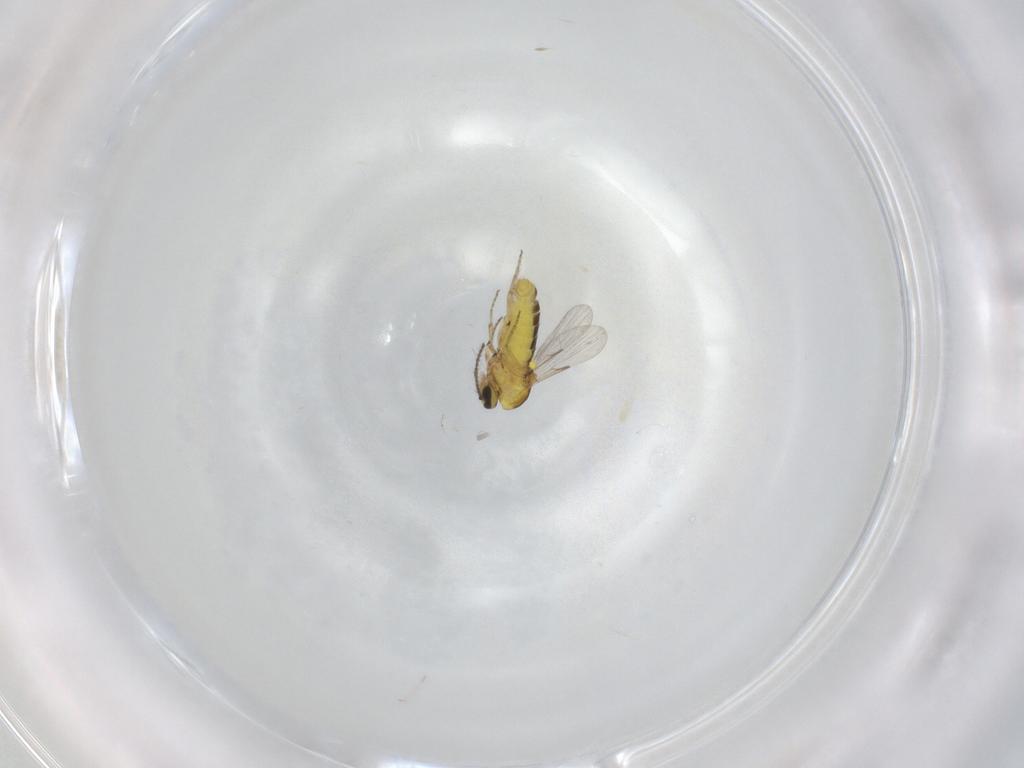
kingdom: Animalia
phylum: Arthropoda
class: Insecta
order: Diptera
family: Ceratopogonidae
